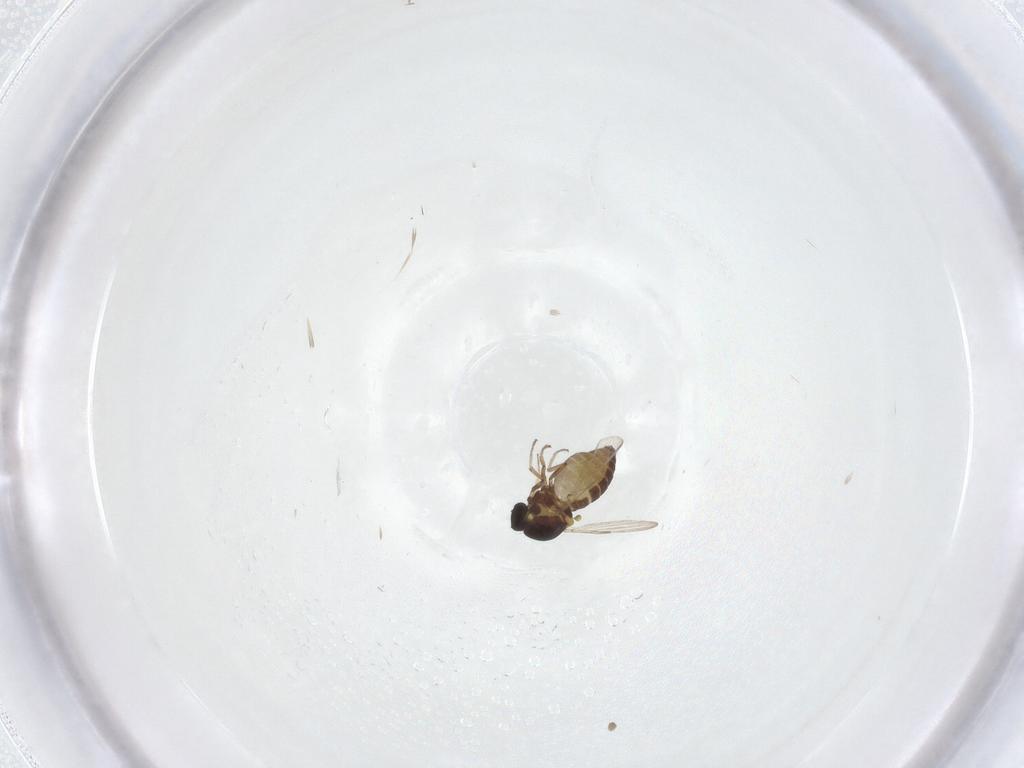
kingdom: Animalia
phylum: Arthropoda
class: Insecta
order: Diptera
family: Ceratopogonidae
